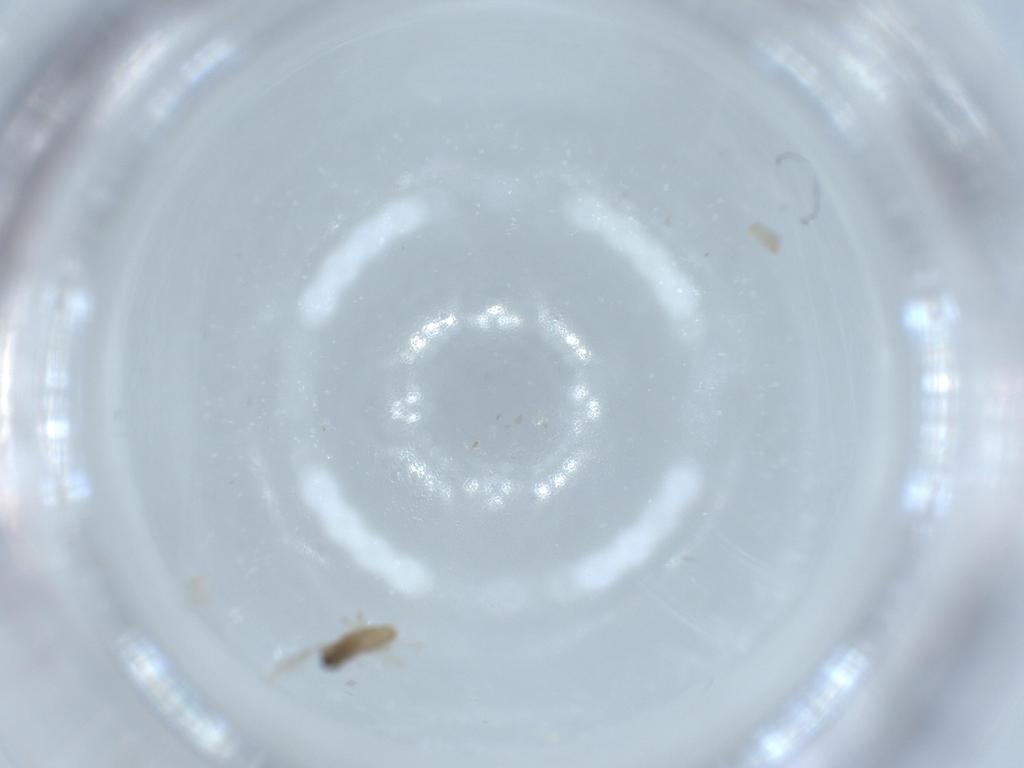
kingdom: Animalia
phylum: Arthropoda
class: Insecta
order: Diptera
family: Cecidomyiidae
